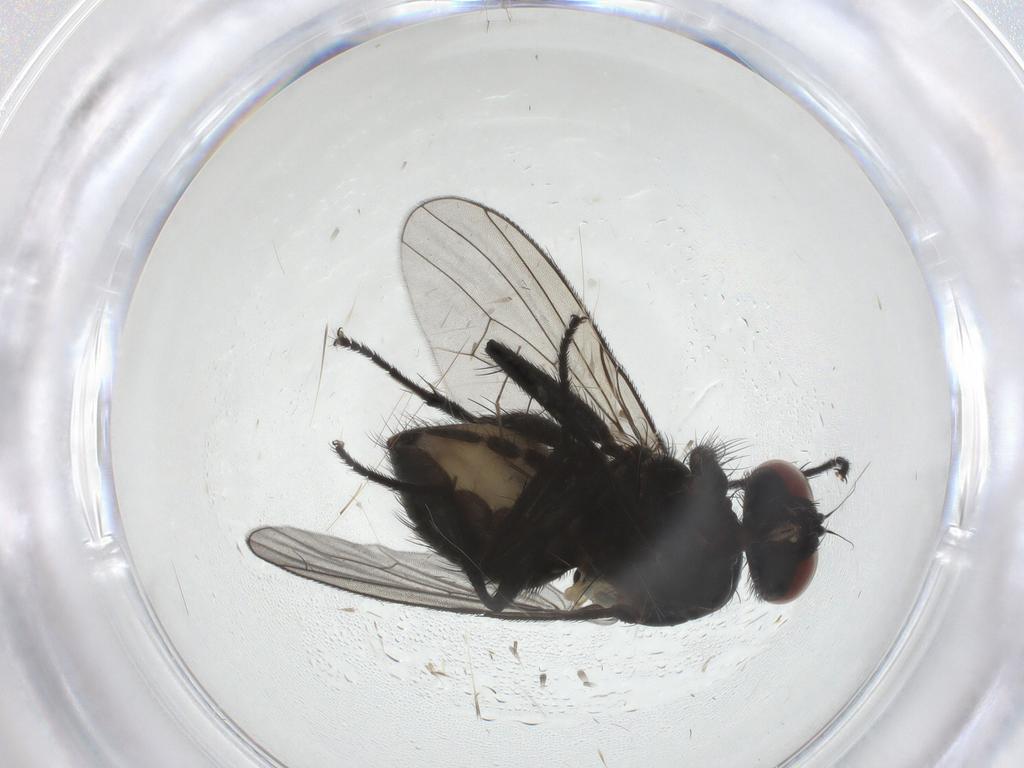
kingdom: Animalia
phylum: Arthropoda
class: Insecta
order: Diptera
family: Muscidae
